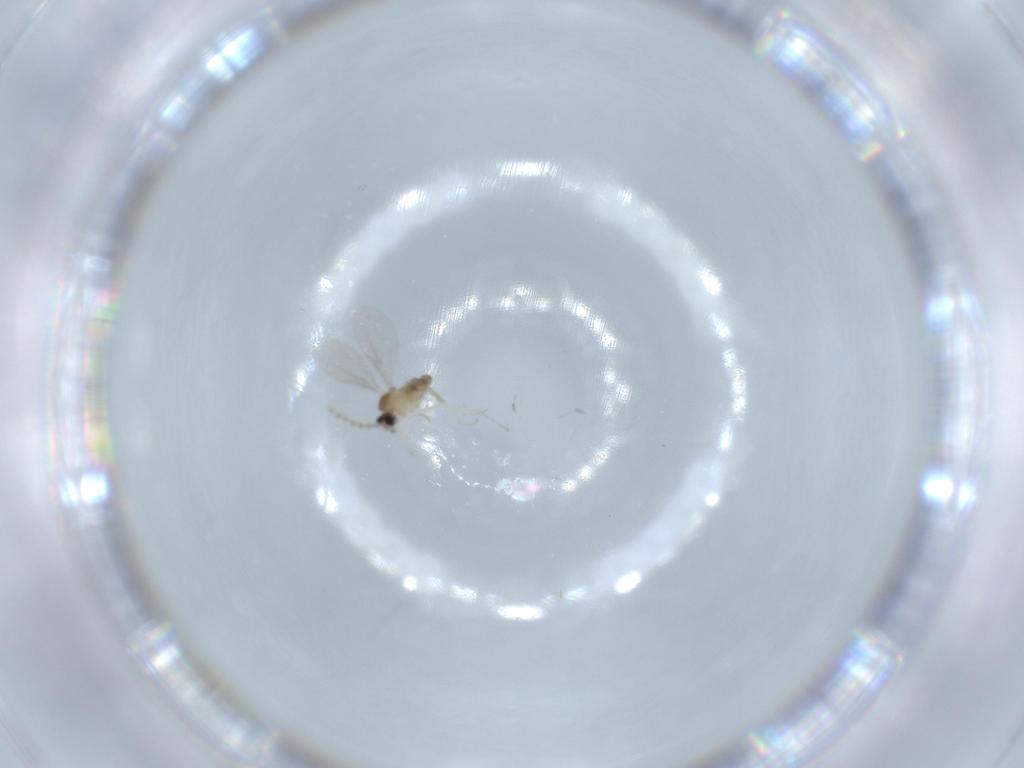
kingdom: Animalia
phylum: Arthropoda
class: Insecta
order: Diptera
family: Cecidomyiidae
